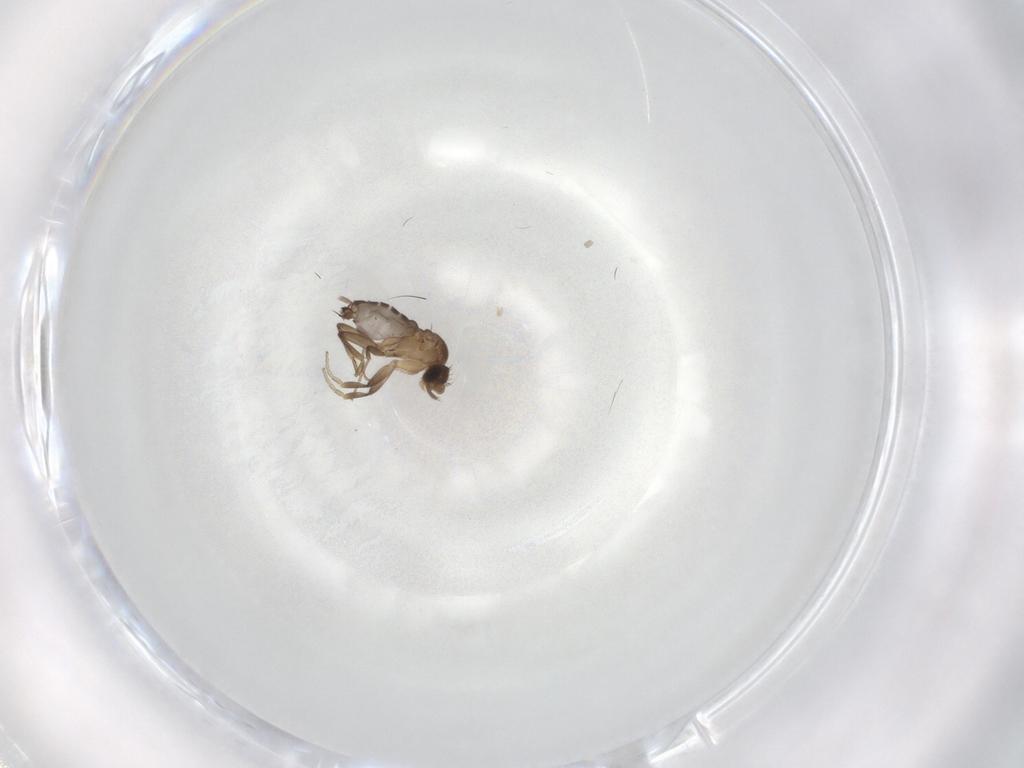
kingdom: Animalia
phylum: Arthropoda
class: Insecta
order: Diptera
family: Phoridae
